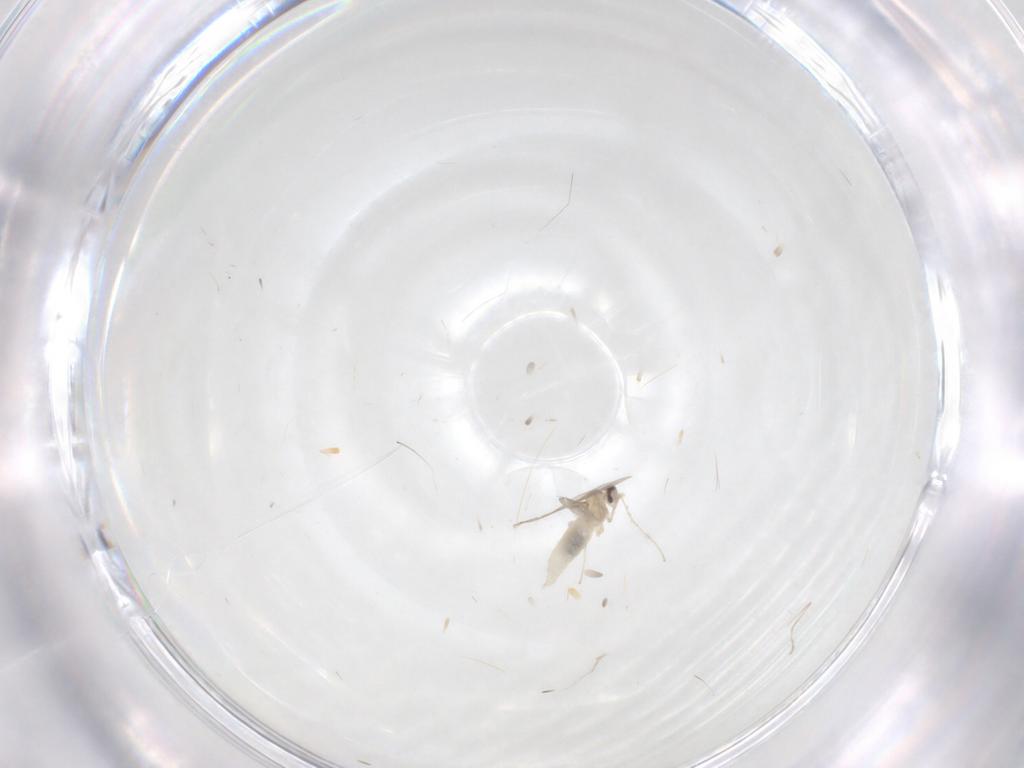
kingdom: Animalia
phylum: Arthropoda
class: Insecta
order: Diptera
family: Cecidomyiidae
